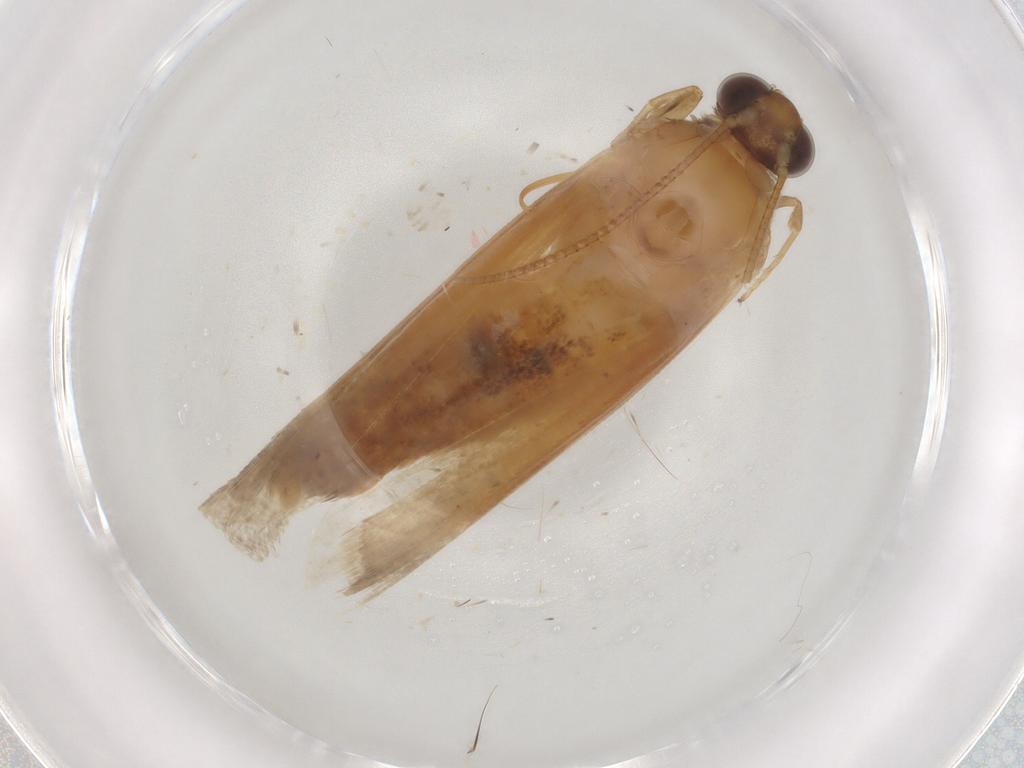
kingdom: Animalia
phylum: Arthropoda
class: Insecta
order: Lepidoptera
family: Pyralidae
